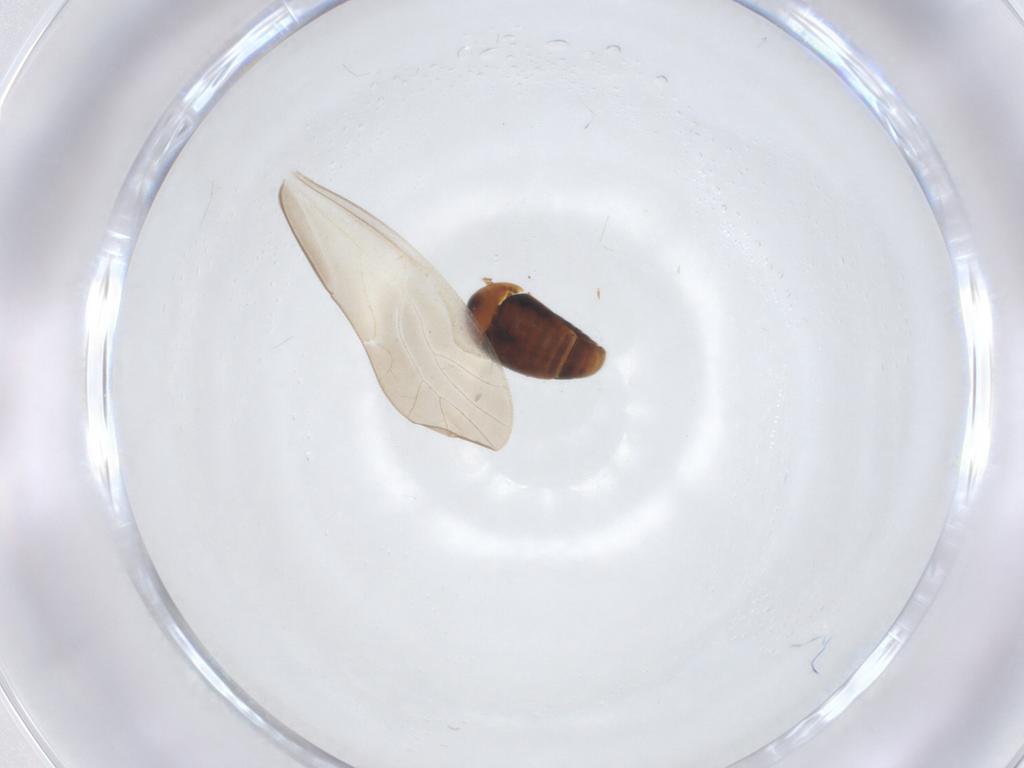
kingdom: Animalia
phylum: Arthropoda
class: Insecta
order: Coleoptera
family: Corylophidae
